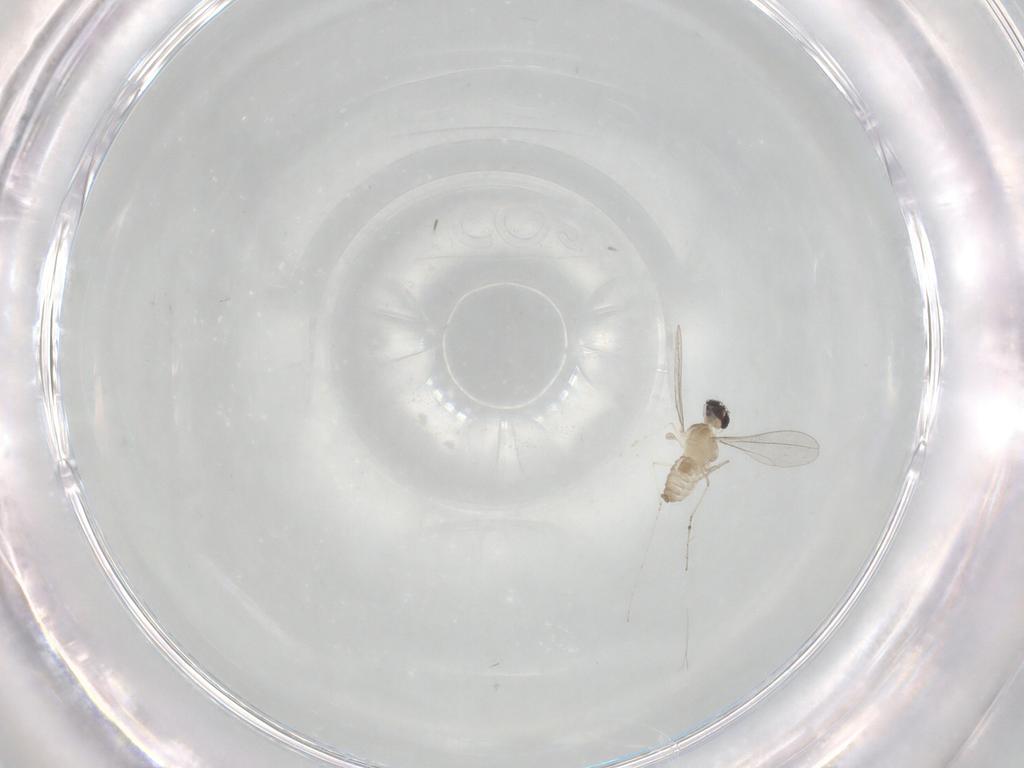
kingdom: Animalia
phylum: Arthropoda
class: Insecta
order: Diptera
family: Cecidomyiidae
